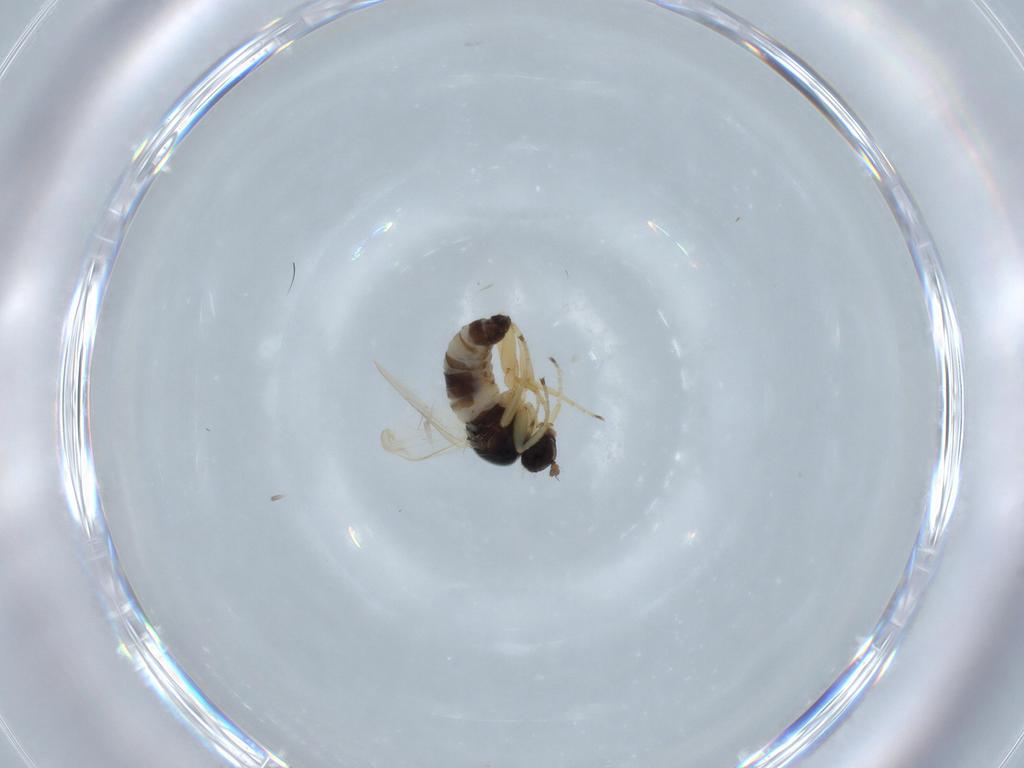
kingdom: Animalia
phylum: Arthropoda
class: Insecta
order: Diptera
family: Hybotidae
